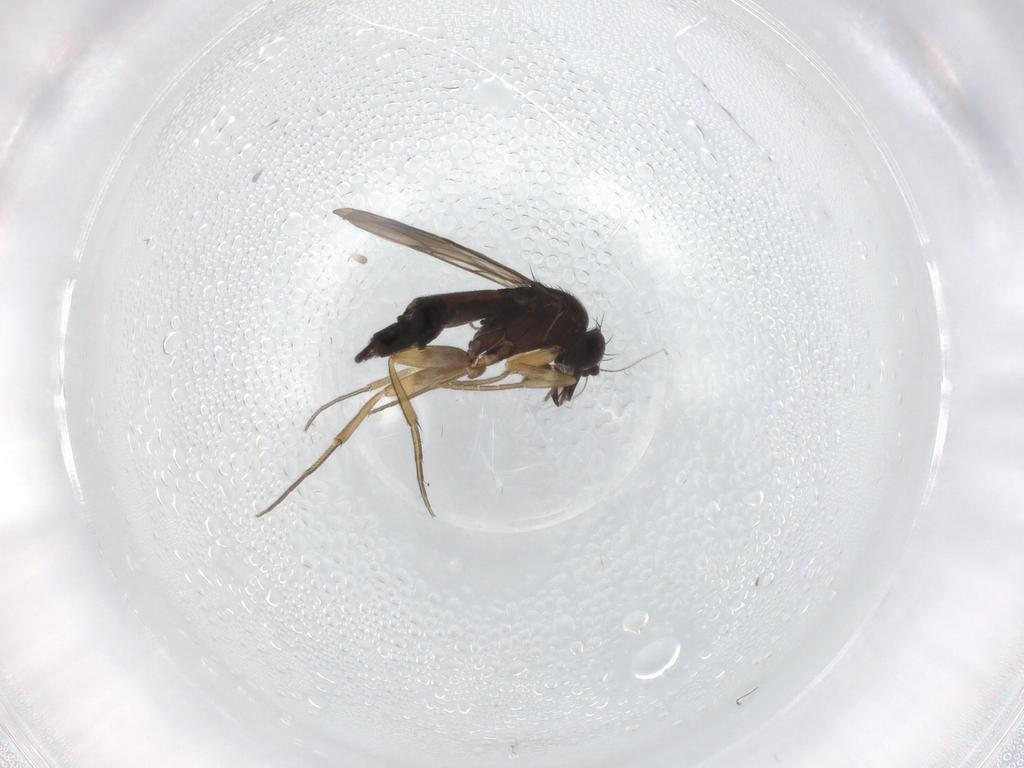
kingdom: Animalia
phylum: Arthropoda
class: Insecta
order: Diptera
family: Cecidomyiidae
